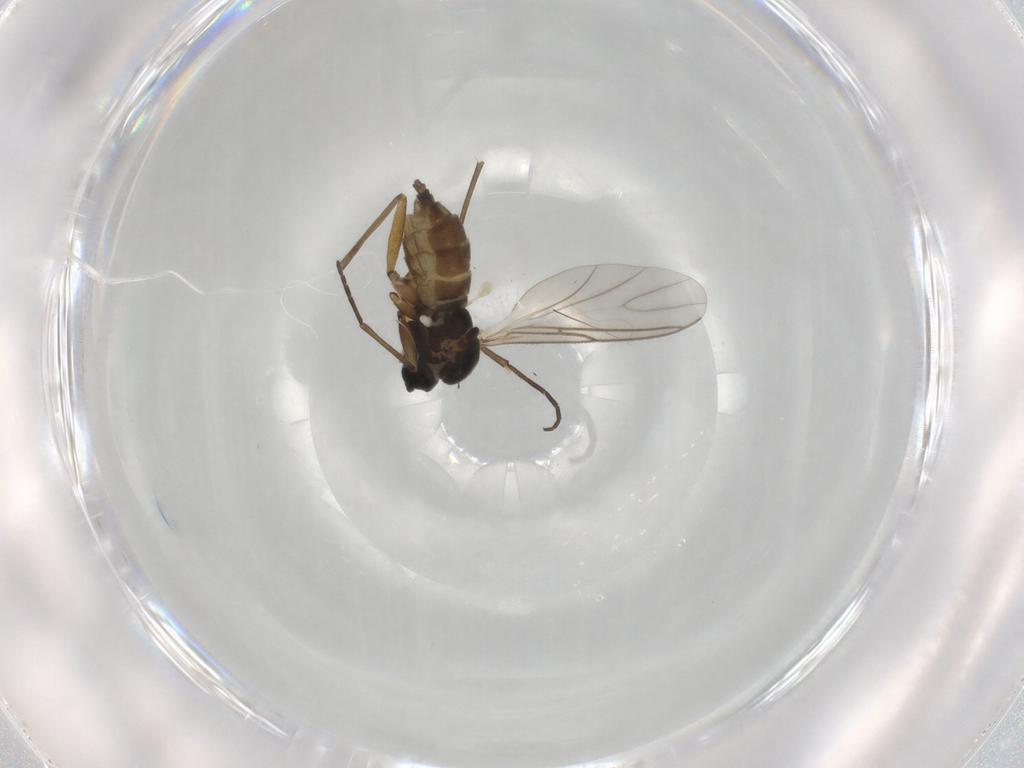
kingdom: Animalia
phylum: Arthropoda
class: Insecta
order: Diptera
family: Sciaridae
